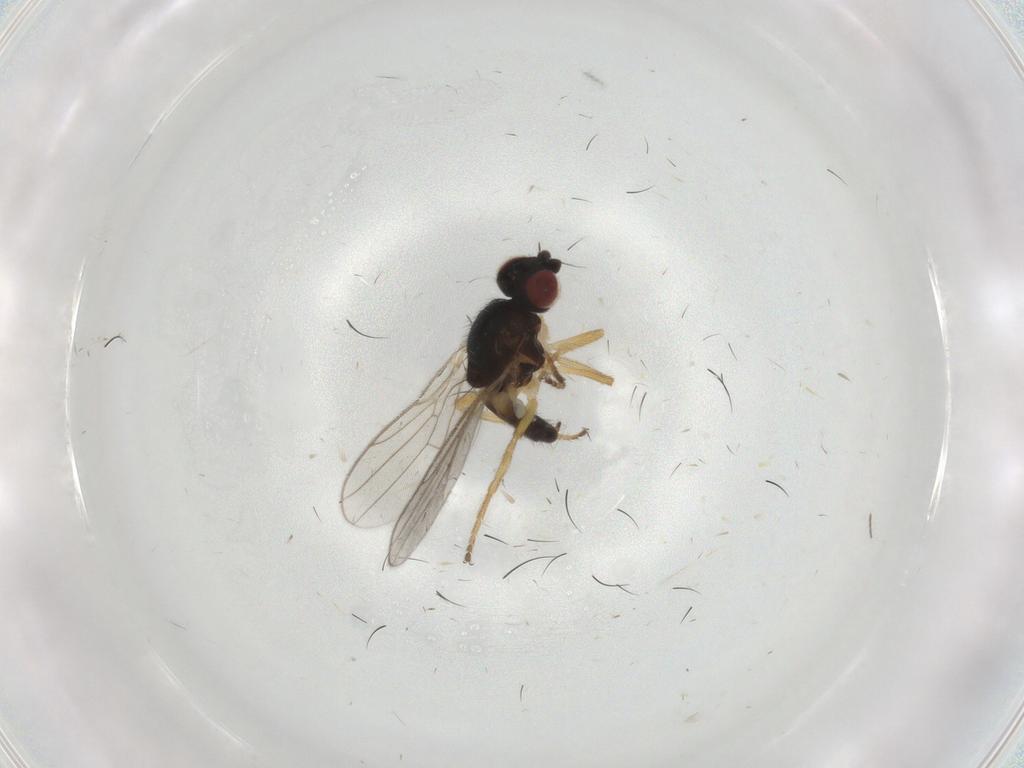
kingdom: Animalia
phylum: Arthropoda
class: Insecta
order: Diptera
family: Chloropidae
